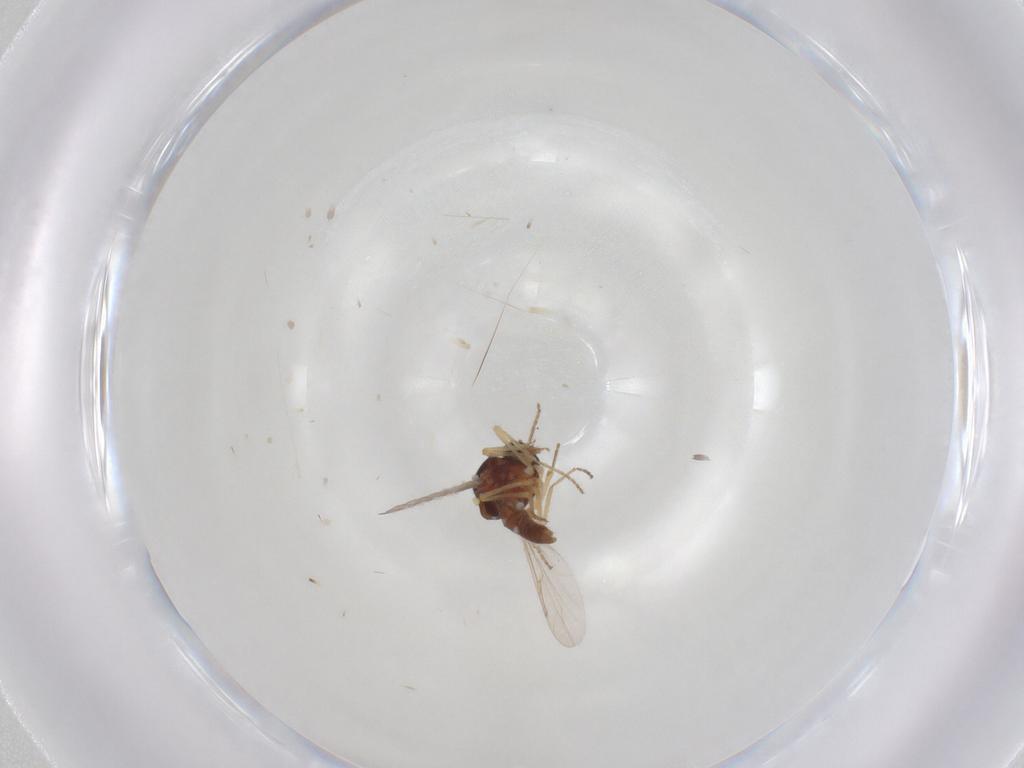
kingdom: Animalia
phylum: Arthropoda
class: Insecta
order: Diptera
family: Ceratopogonidae
